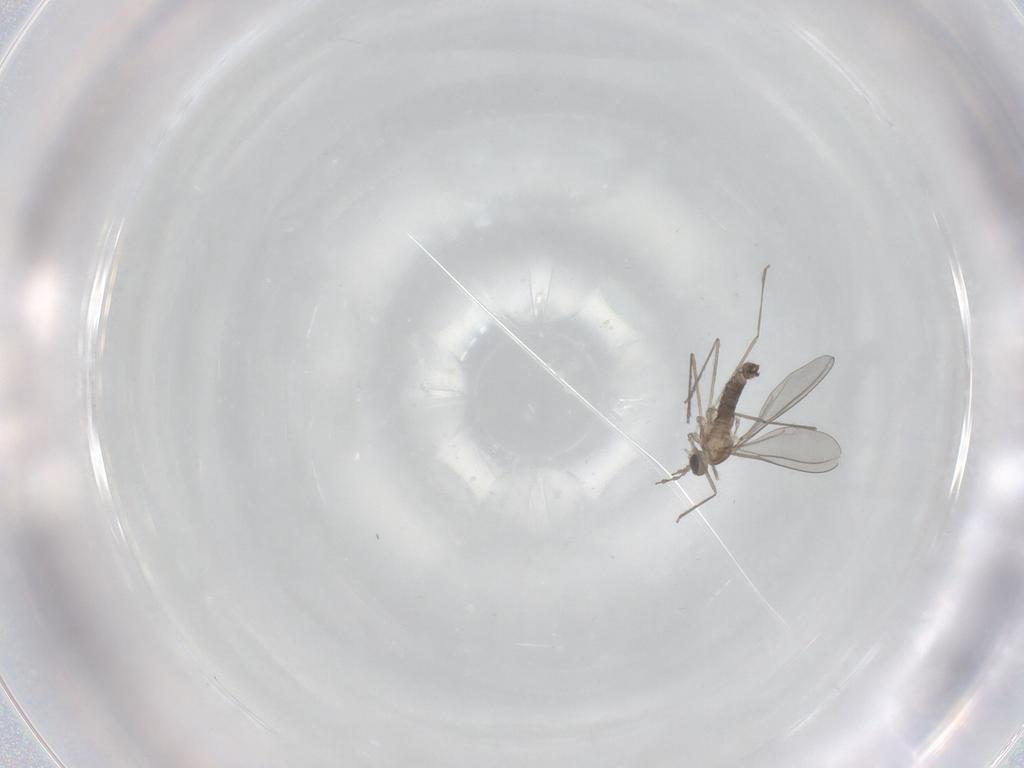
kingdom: Animalia
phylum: Arthropoda
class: Insecta
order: Diptera
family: Cecidomyiidae
